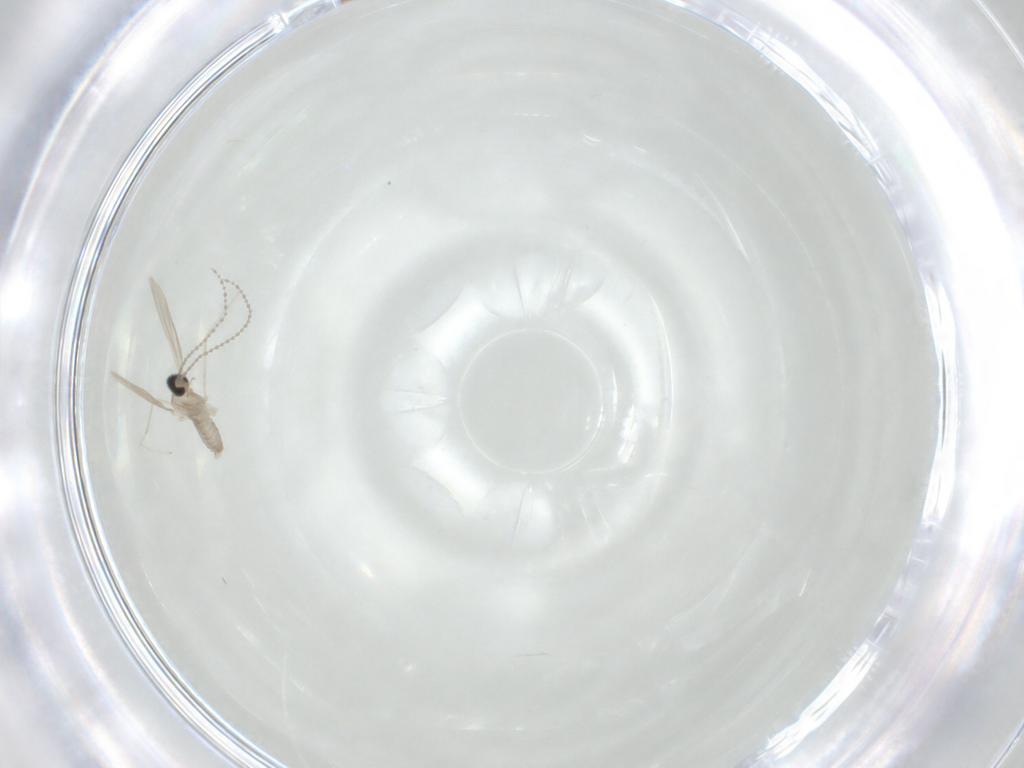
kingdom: Animalia
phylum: Arthropoda
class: Insecta
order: Diptera
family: Cecidomyiidae
